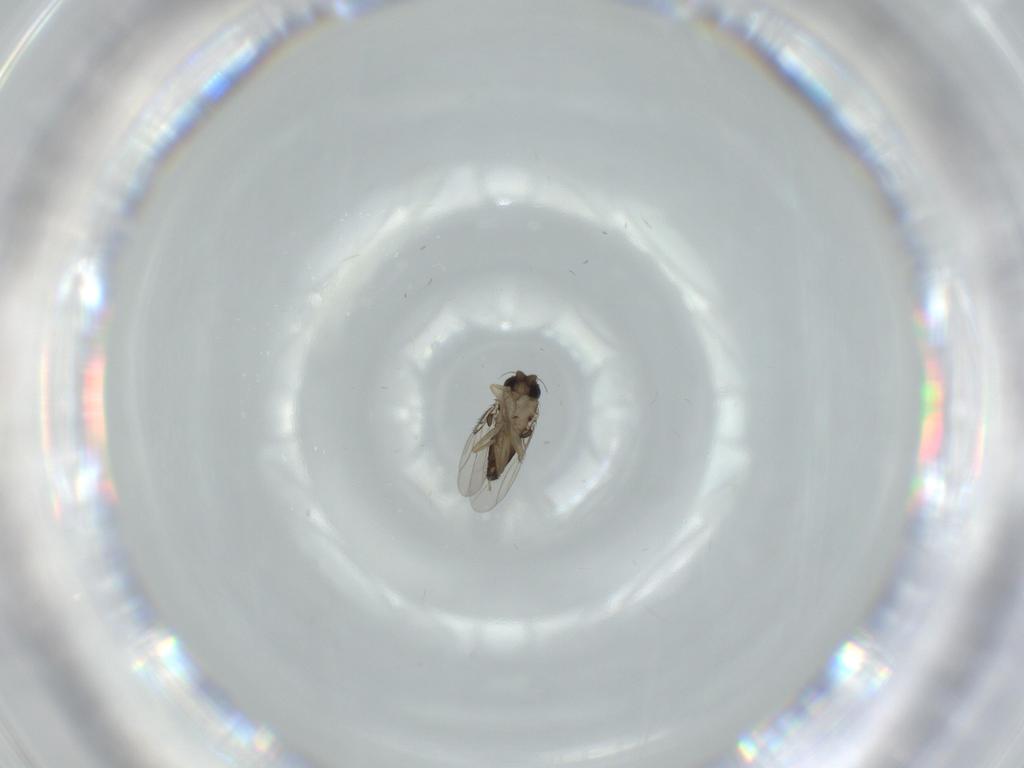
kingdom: Animalia
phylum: Arthropoda
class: Insecta
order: Diptera
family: Phoridae
